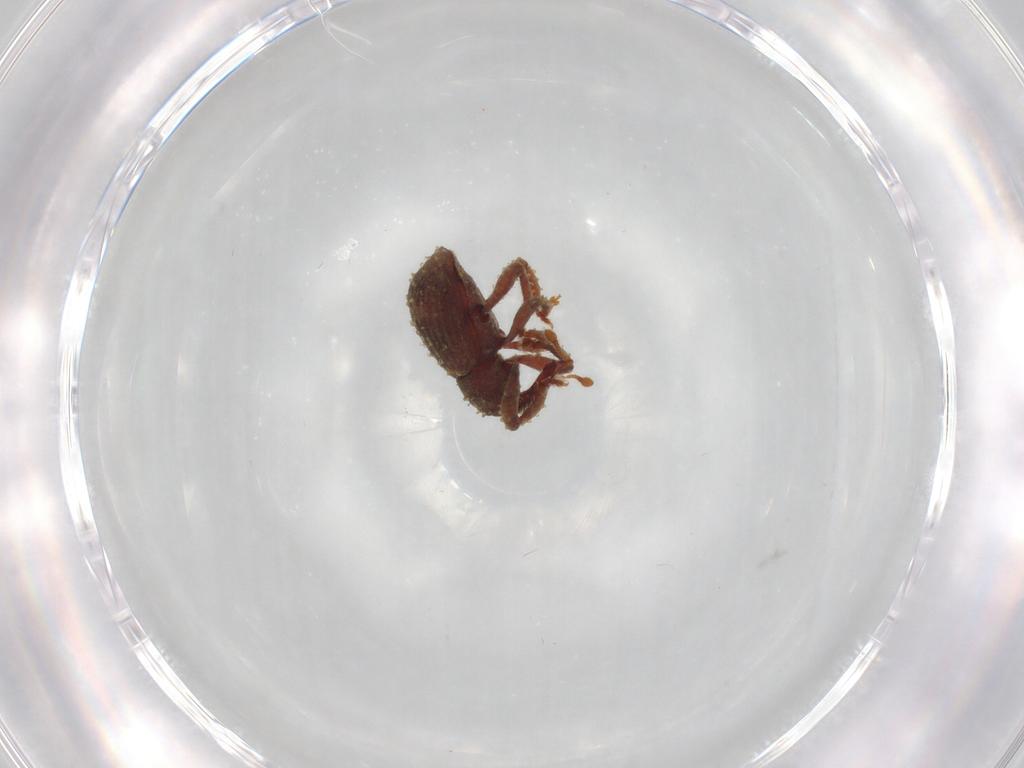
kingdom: Animalia
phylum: Arthropoda
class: Insecta
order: Coleoptera
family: Curculionidae
